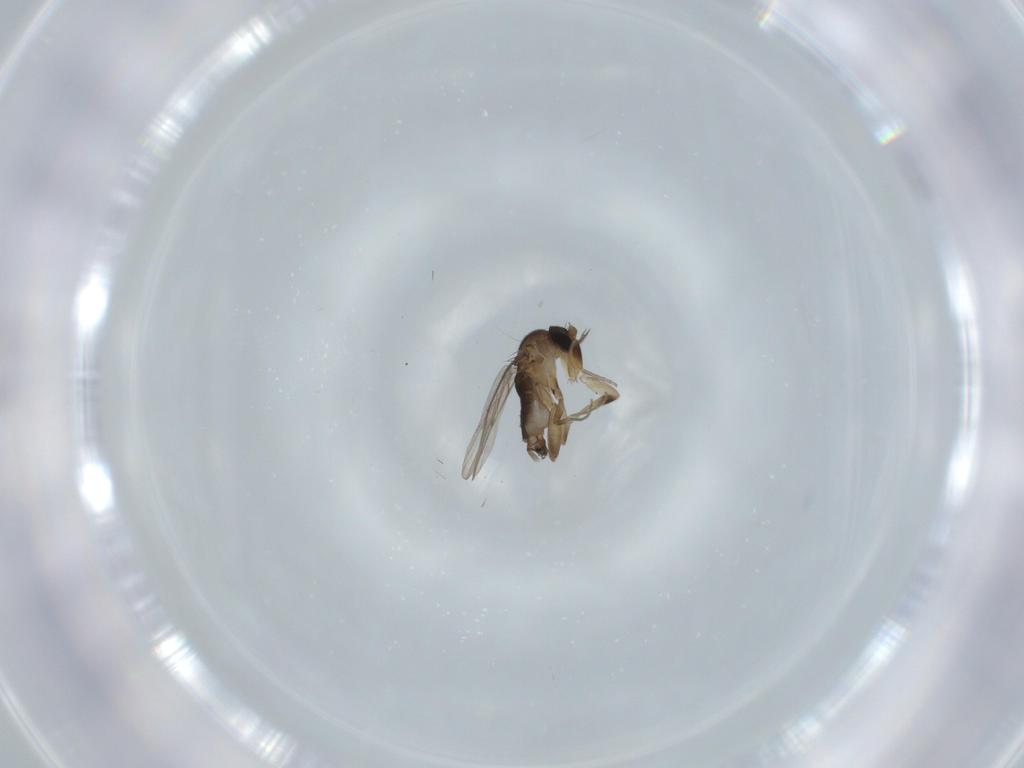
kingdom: Animalia
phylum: Arthropoda
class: Insecta
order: Diptera
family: Phoridae
